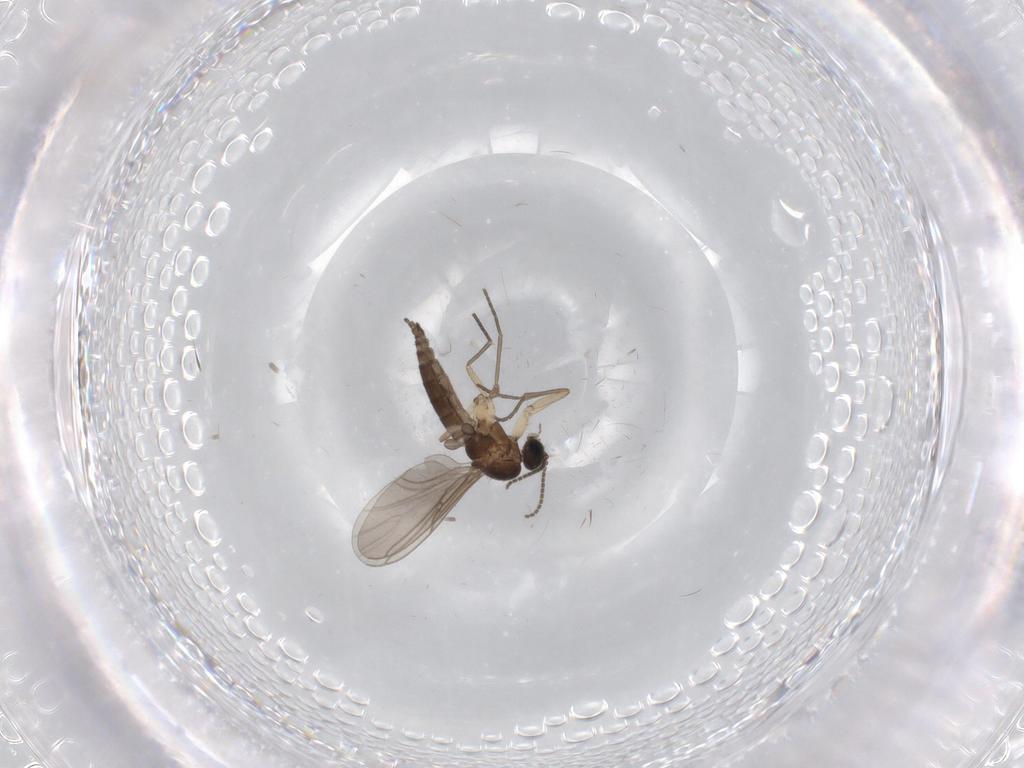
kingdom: Animalia
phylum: Arthropoda
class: Insecta
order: Diptera
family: Sciaridae
